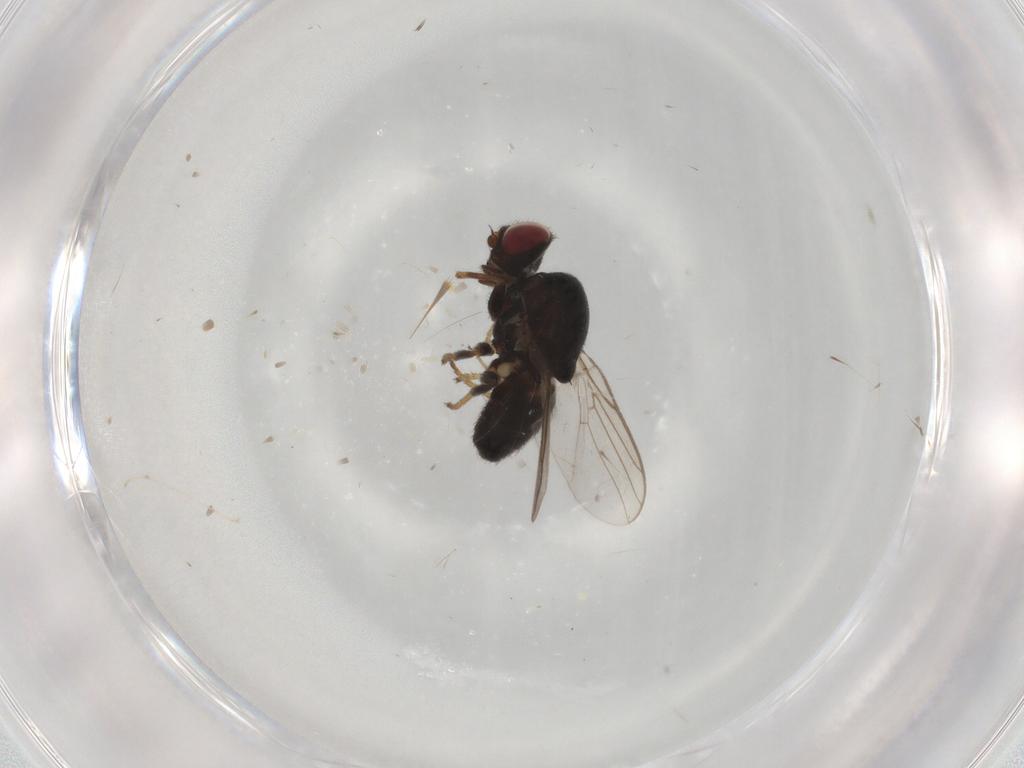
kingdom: Animalia
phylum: Arthropoda
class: Insecta
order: Diptera
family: Chloropidae
